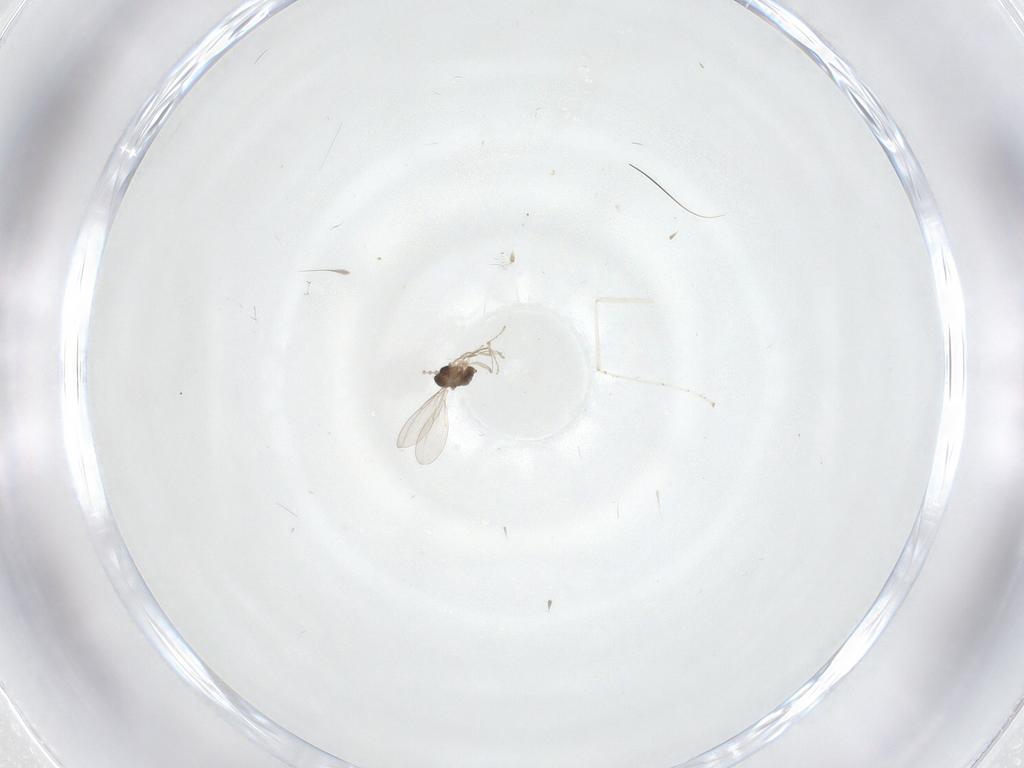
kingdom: Animalia
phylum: Arthropoda
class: Insecta
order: Diptera
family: Cecidomyiidae
